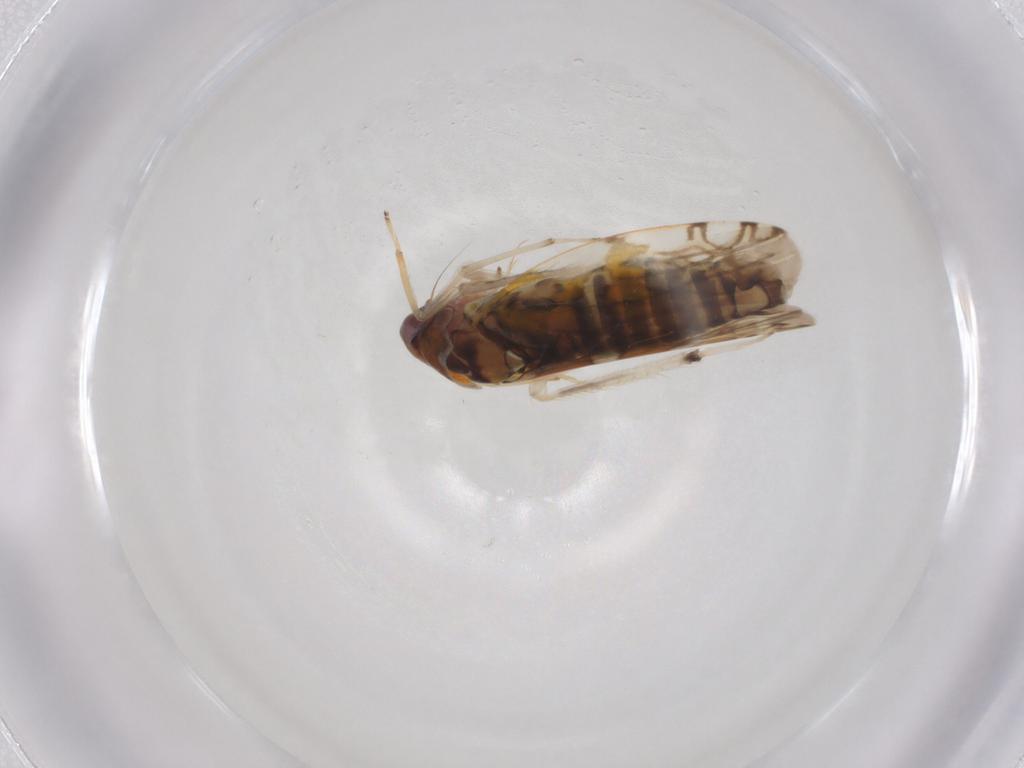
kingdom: Animalia
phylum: Arthropoda
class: Insecta
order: Hemiptera
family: Cicadellidae
